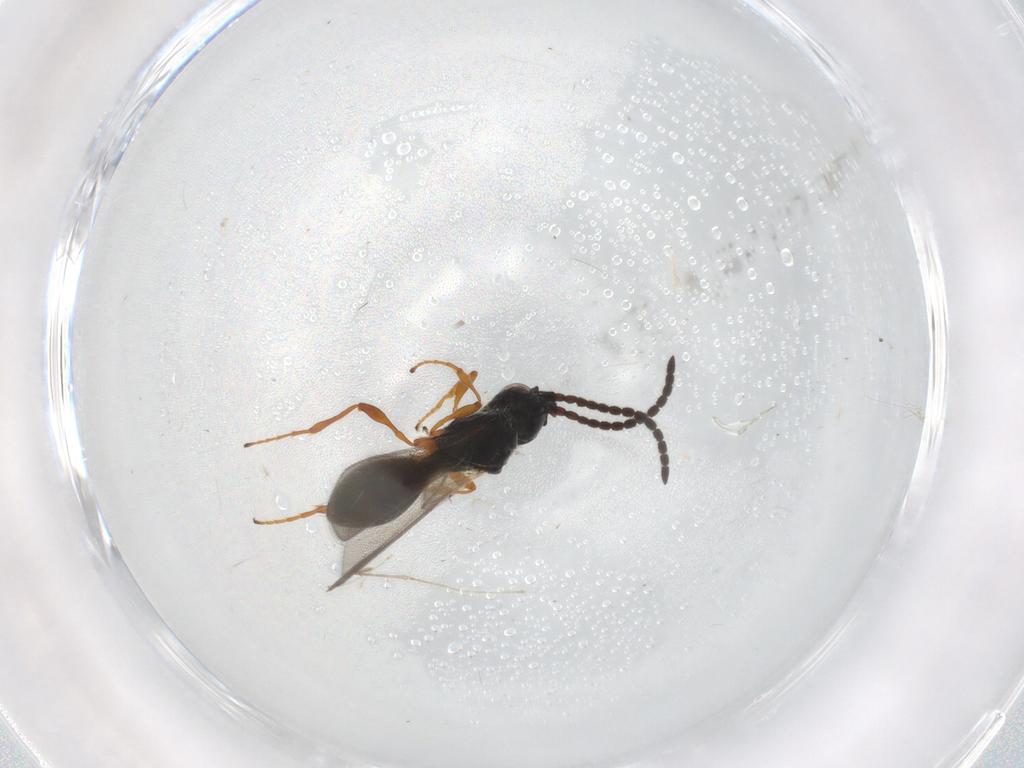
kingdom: Animalia
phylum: Arthropoda
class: Insecta
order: Hymenoptera
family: Diapriidae
